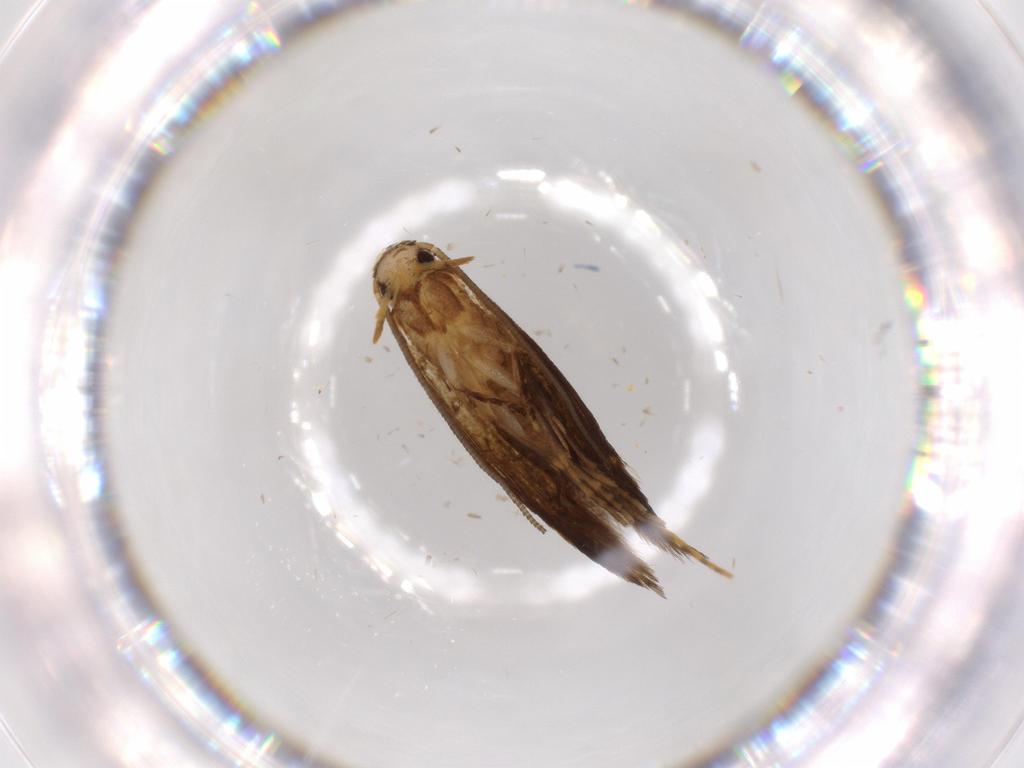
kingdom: Animalia
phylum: Arthropoda
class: Insecta
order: Lepidoptera
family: Tineidae
